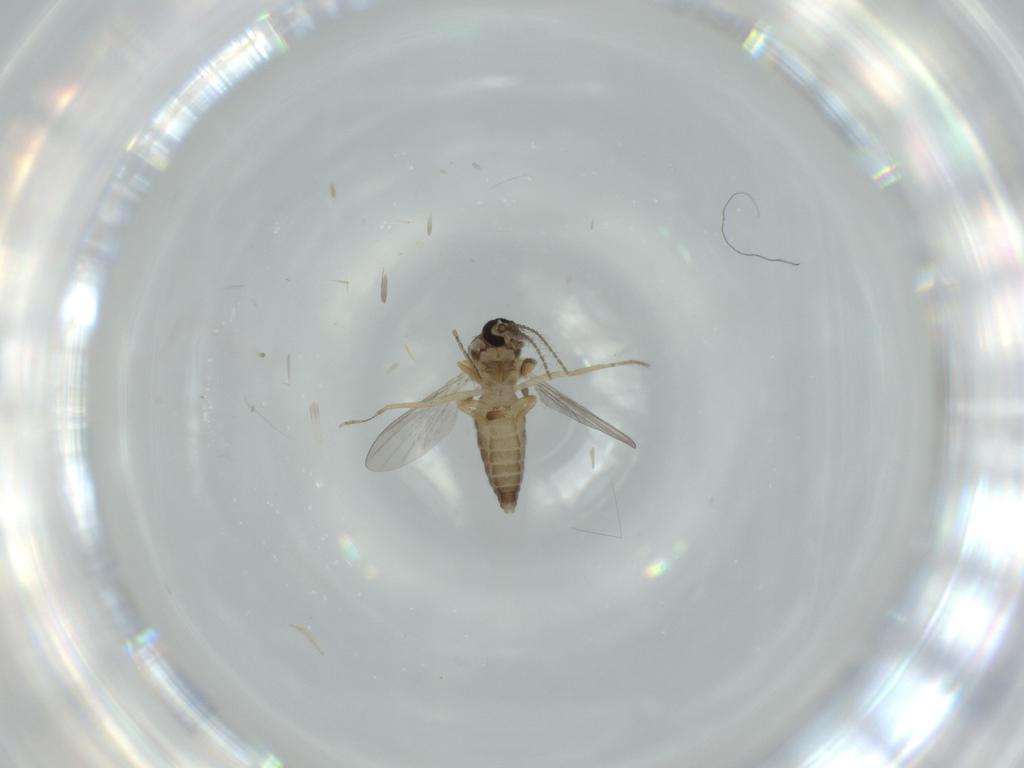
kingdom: Animalia
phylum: Arthropoda
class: Insecta
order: Diptera
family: Ceratopogonidae
